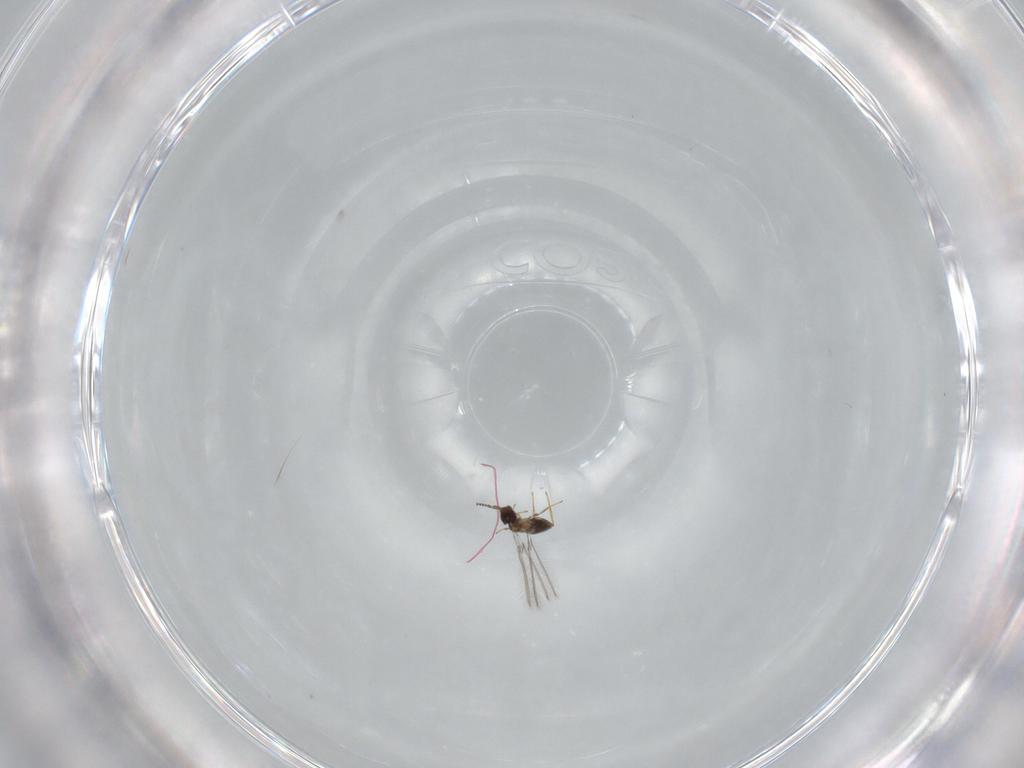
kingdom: Animalia
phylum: Arthropoda
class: Insecta
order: Hymenoptera
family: Mymaridae
